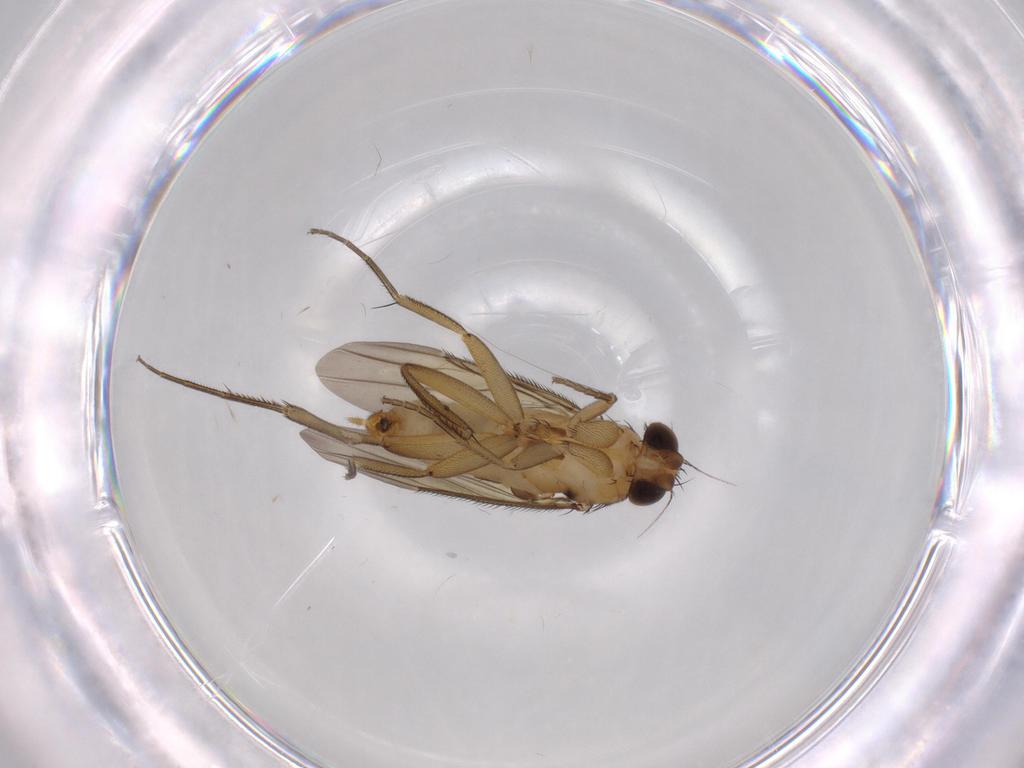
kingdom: Animalia
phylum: Arthropoda
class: Insecta
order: Diptera
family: Phoridae
